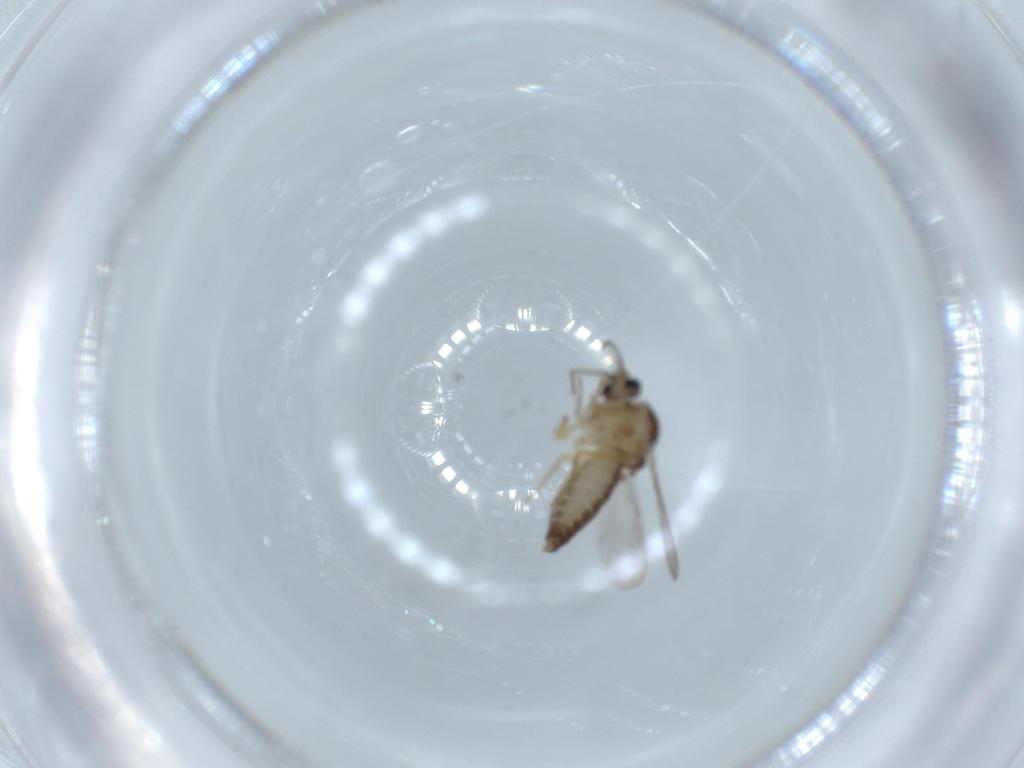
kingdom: Animalia
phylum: Arthropoda
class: Insecta
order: Diptera
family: Ceratopogonidae
